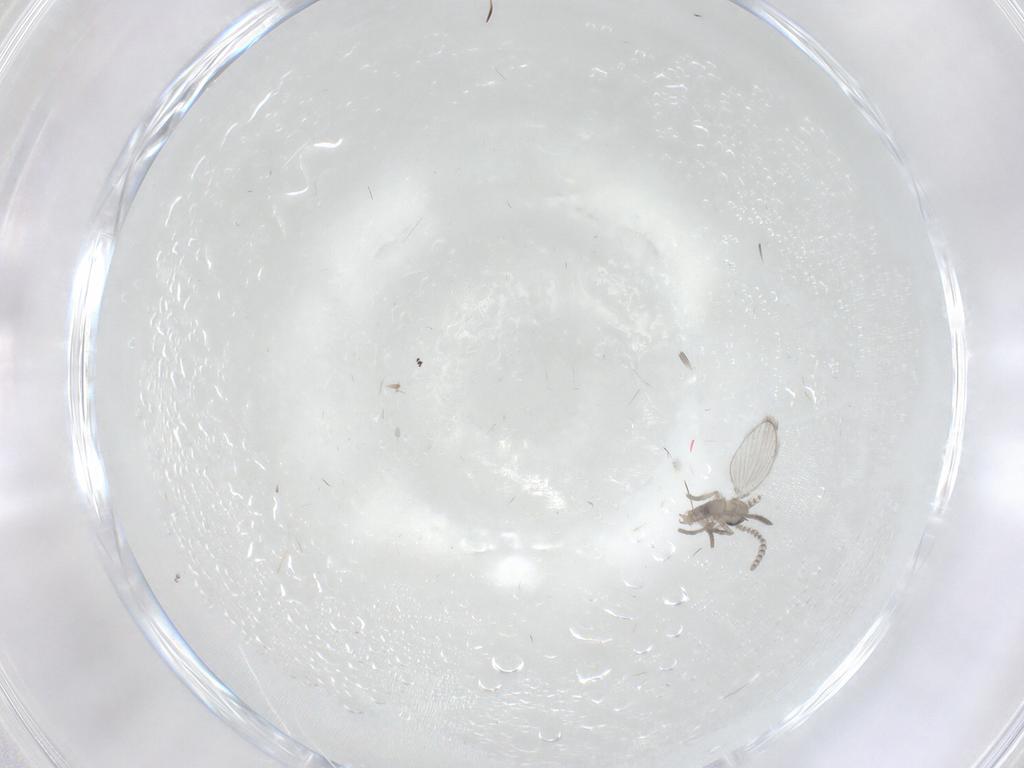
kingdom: Animalia
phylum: Arthropoda
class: Insecta
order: Diptera
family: Psychodidae
